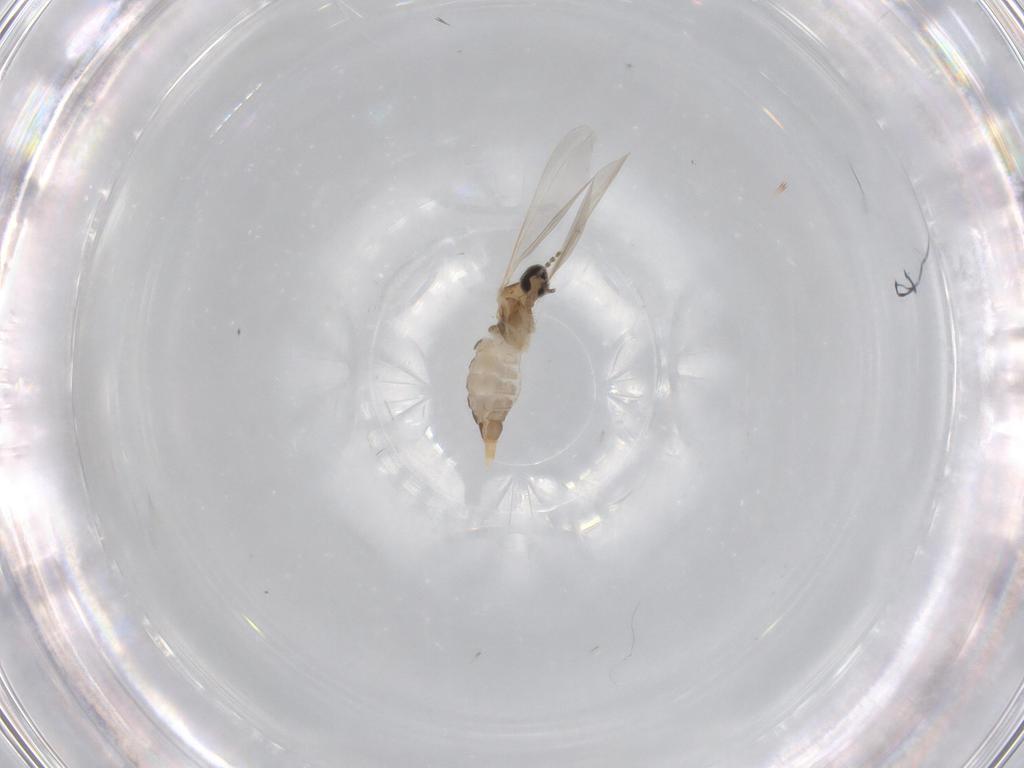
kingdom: Animalia
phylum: Arthropoda
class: Insecta
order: Diptera
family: Cecidomyiidae
